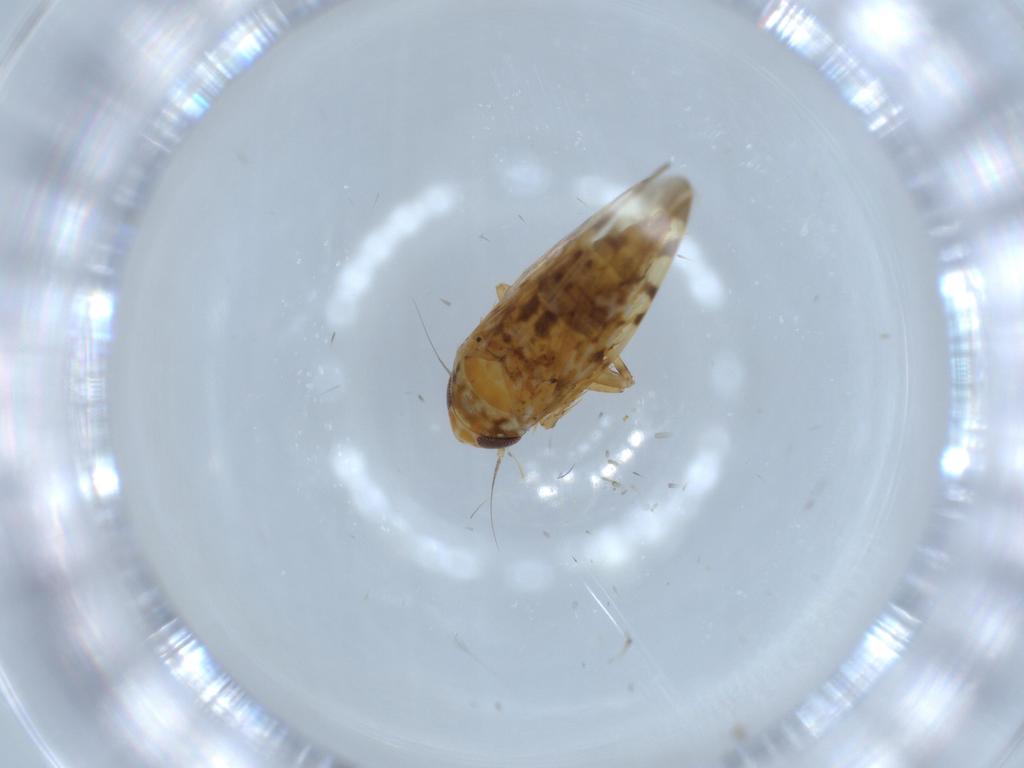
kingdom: Animalia
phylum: Arthropoda
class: Insecta
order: Hemiptera
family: Cicadellidae
